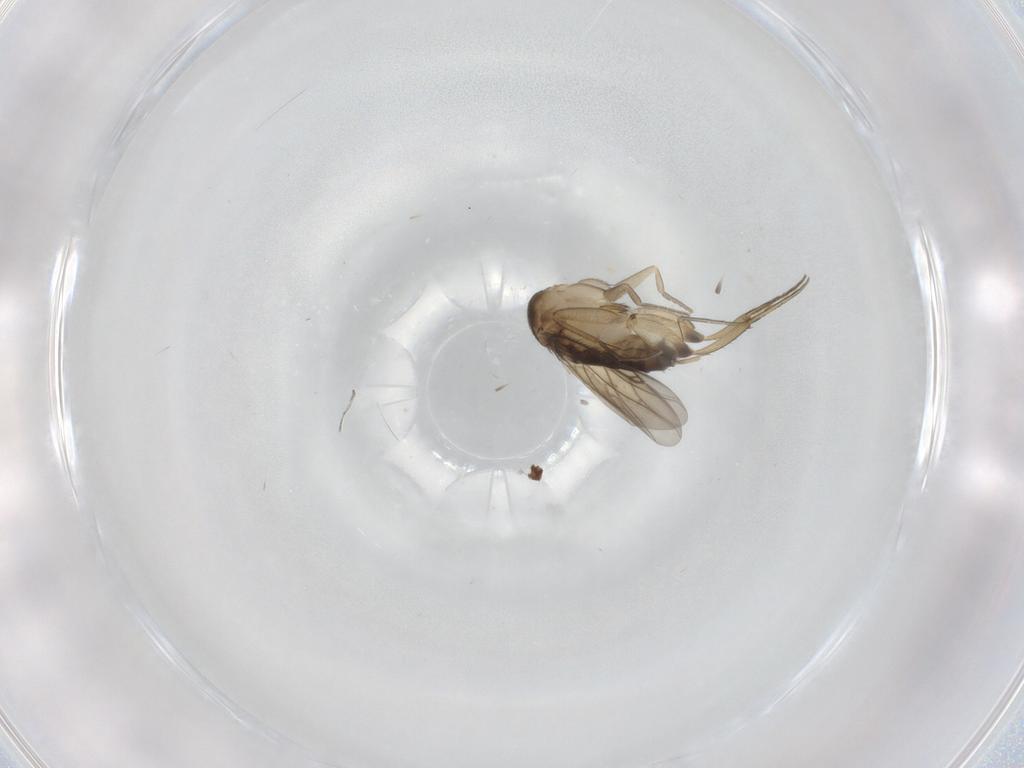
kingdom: Animalia
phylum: Arthropoda
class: Insecta
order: Diptera
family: Phoridae
